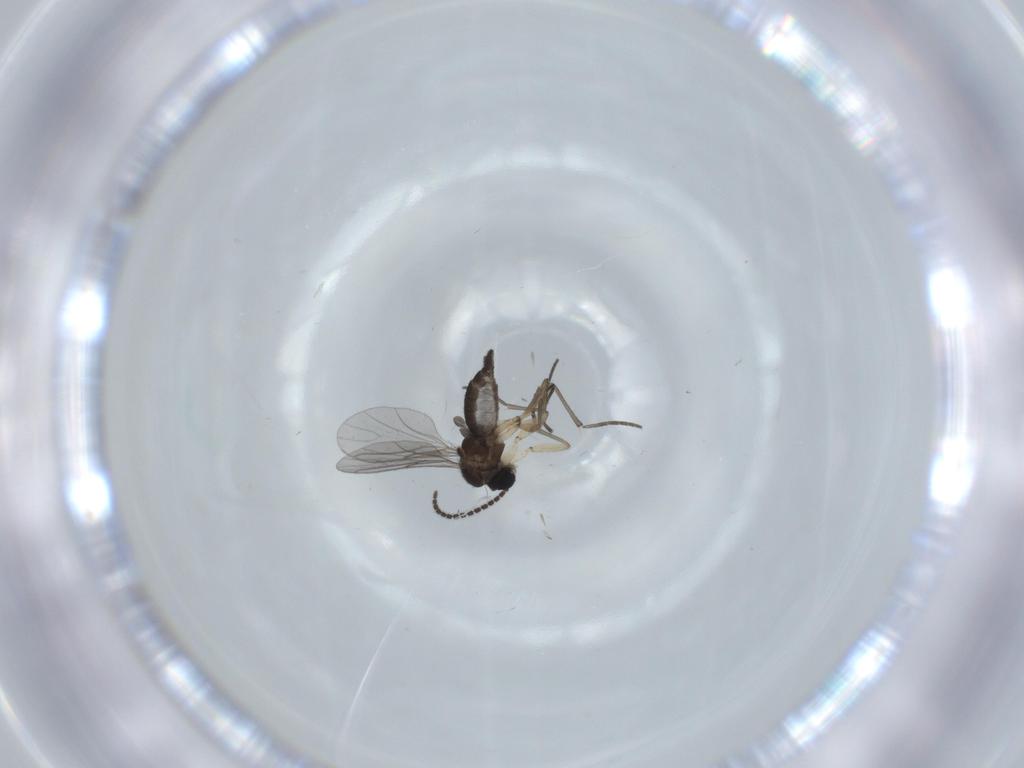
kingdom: Animalia
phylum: Arthropoda
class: Insecta
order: Diptera
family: Sciaridae
